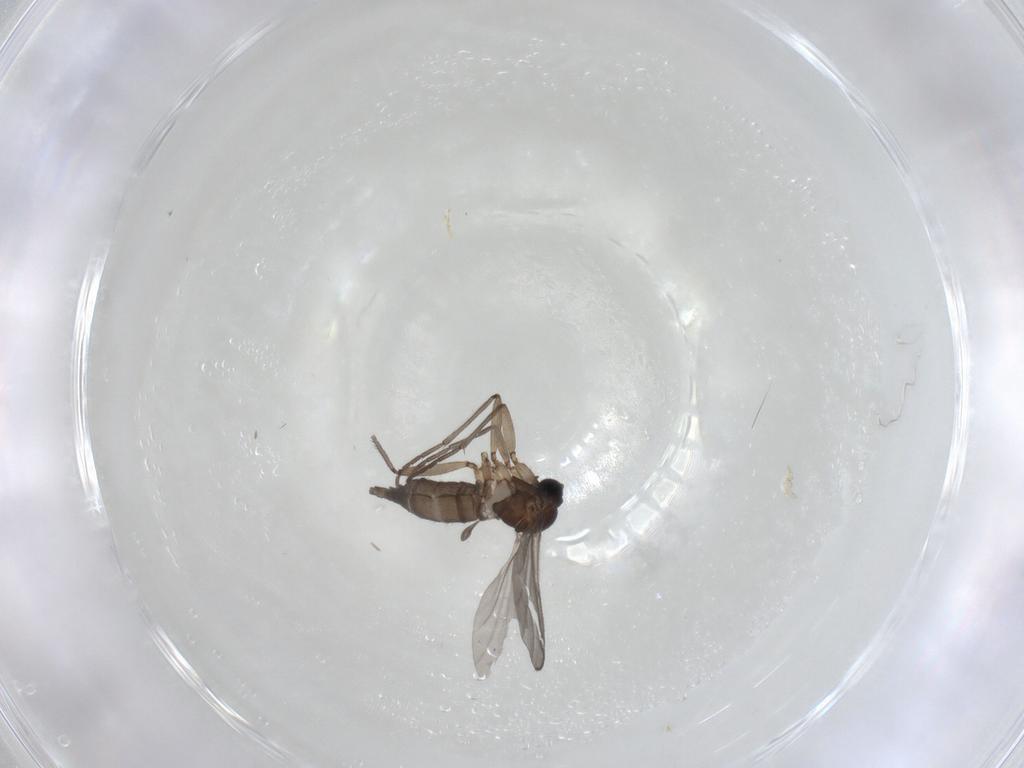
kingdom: Animalia
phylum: Arthropoda
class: Insecta
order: Diptera
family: Sciaridae
